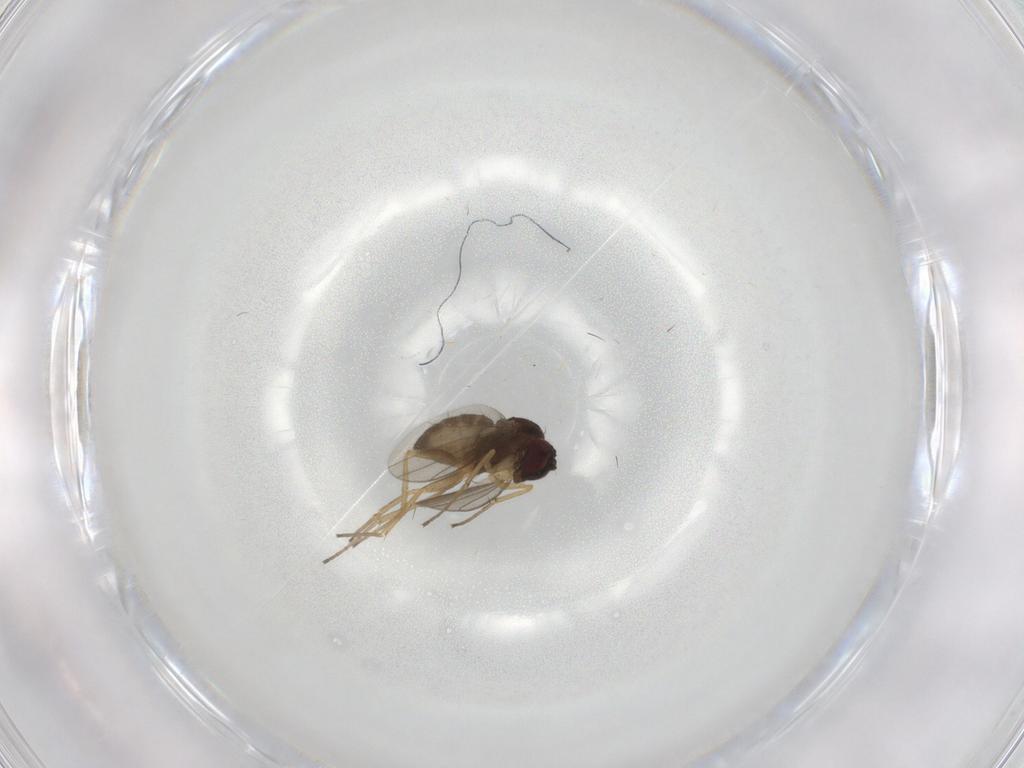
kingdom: Animalia
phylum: Arthropoda
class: Insecta
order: Diptera
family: Dolichopodidae
